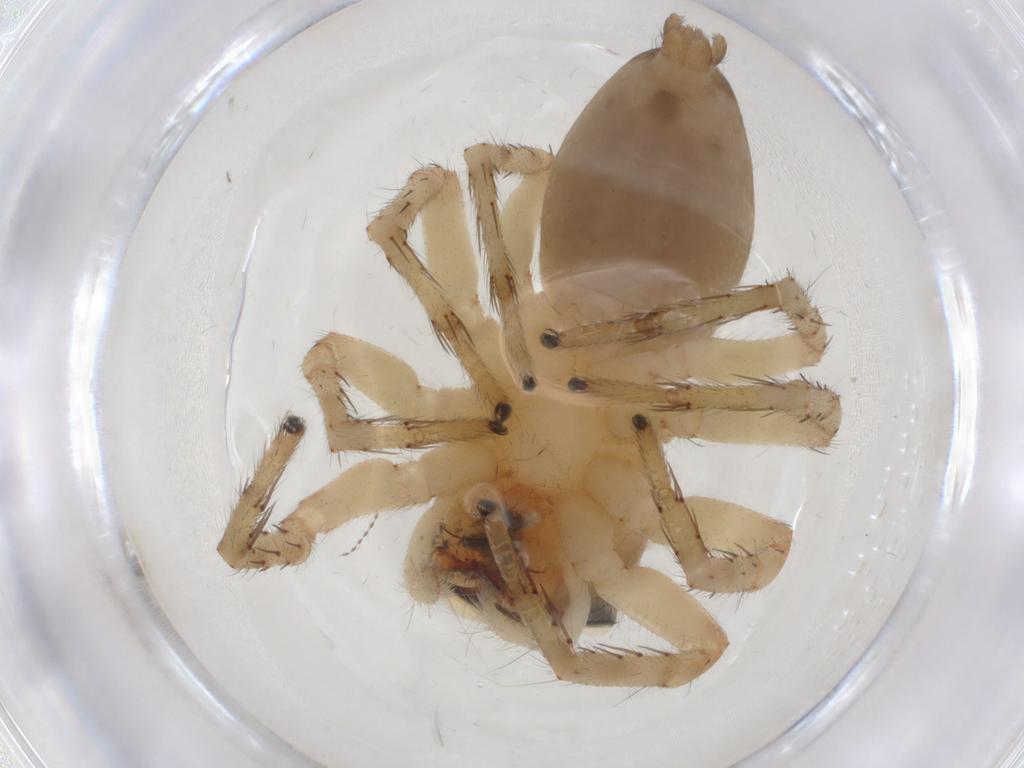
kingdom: Animalia
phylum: Arthropoda
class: Arachnida
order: Araneae
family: Salticidae
